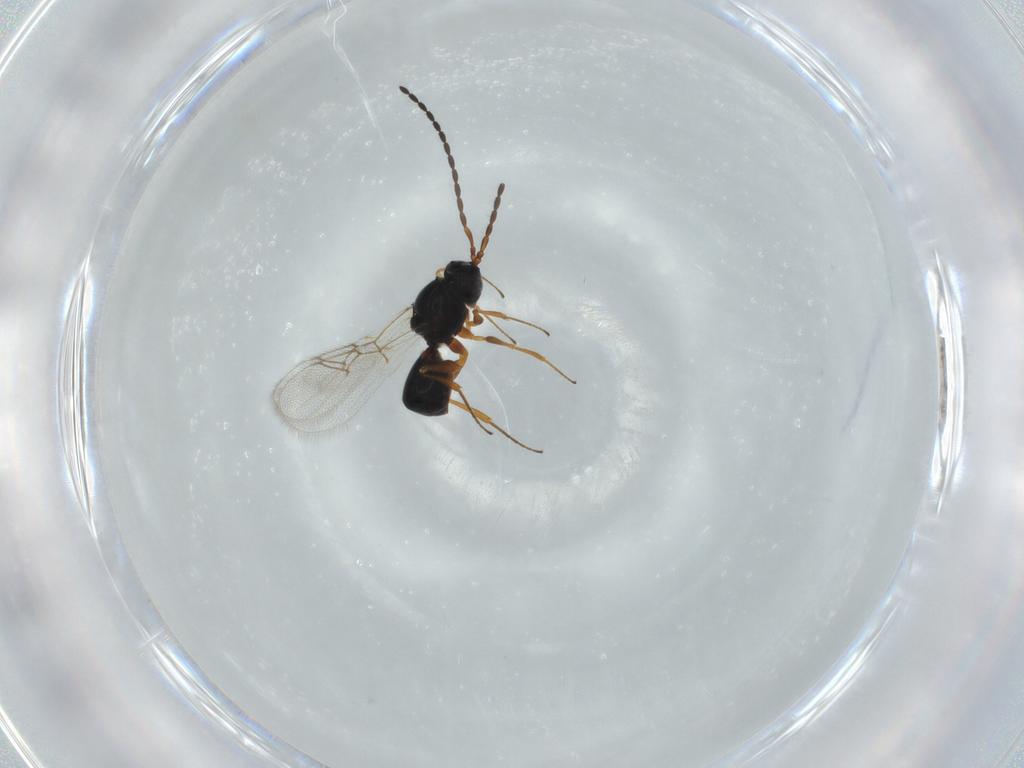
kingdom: Animalia
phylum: Arthropoda
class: Insecta
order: Hymenoptera
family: Figitidae
